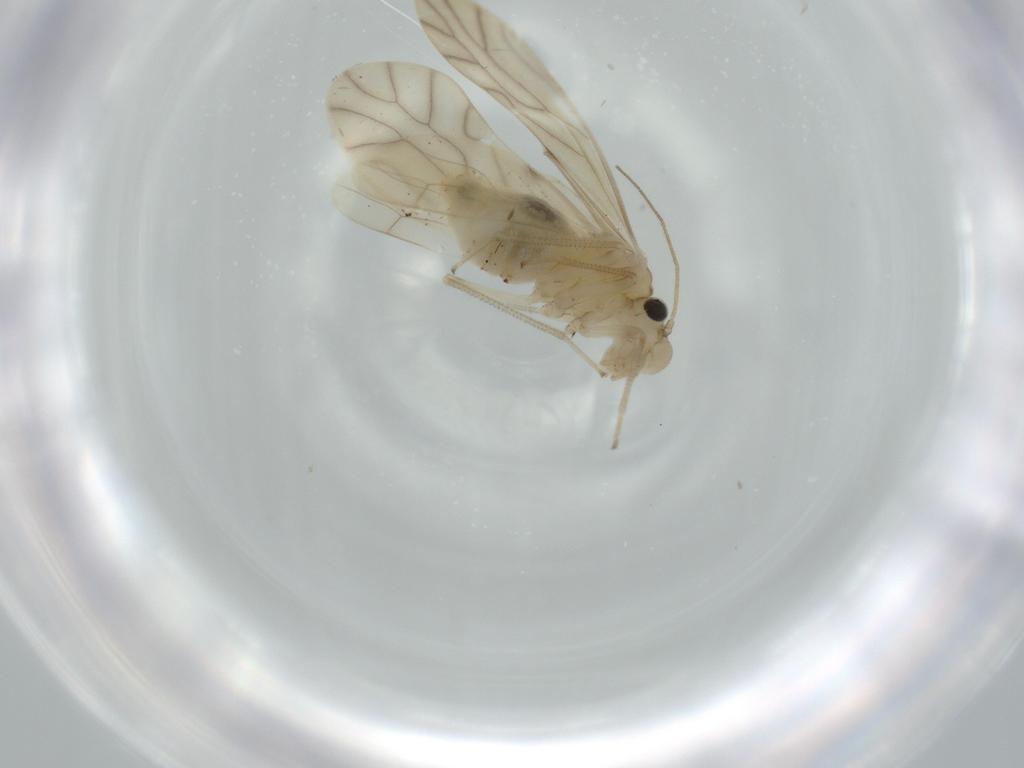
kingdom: Animalia
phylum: Arthropoda
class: Insecta
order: Psocodea
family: Caeciliusidae
